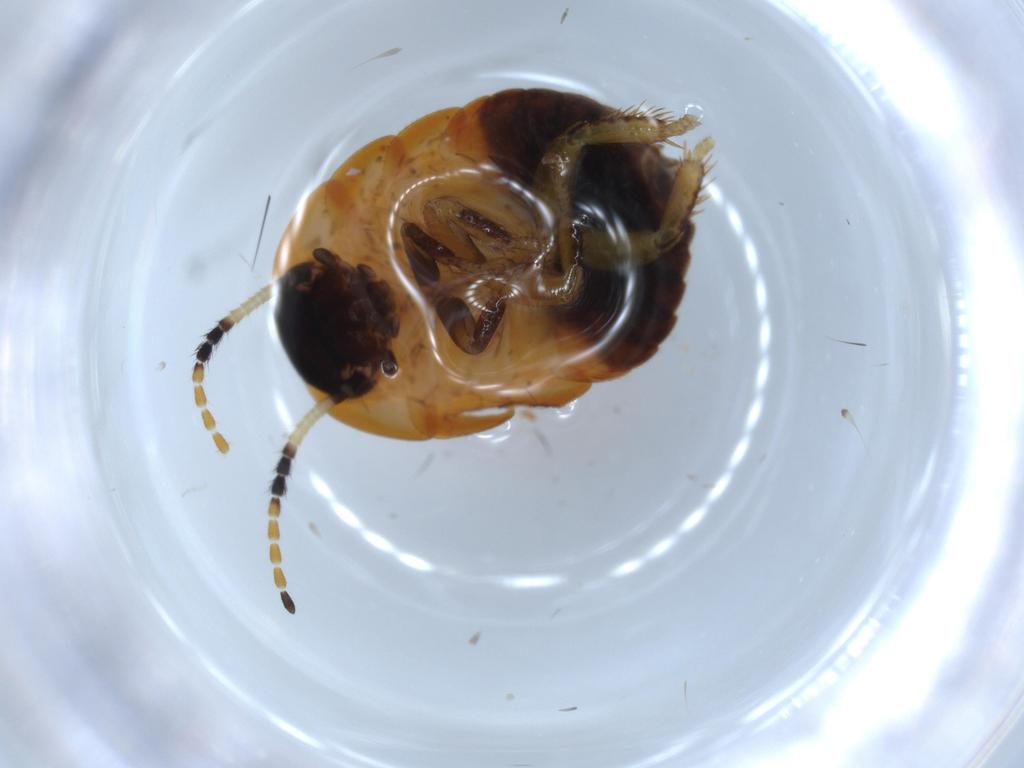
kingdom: Animalia
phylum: Arthropoda
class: Insecta
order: Blattodea
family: Blaberidae
